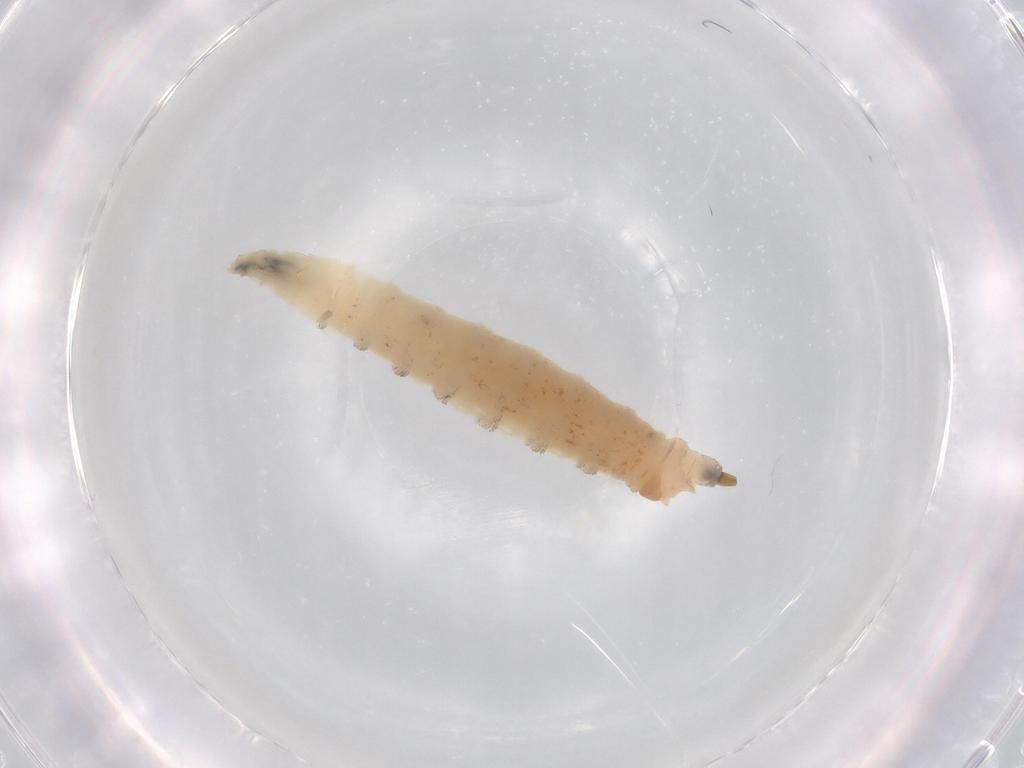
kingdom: Animalia
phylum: Arthropoda
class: Insecta
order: Diptera
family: Drosophilidae
